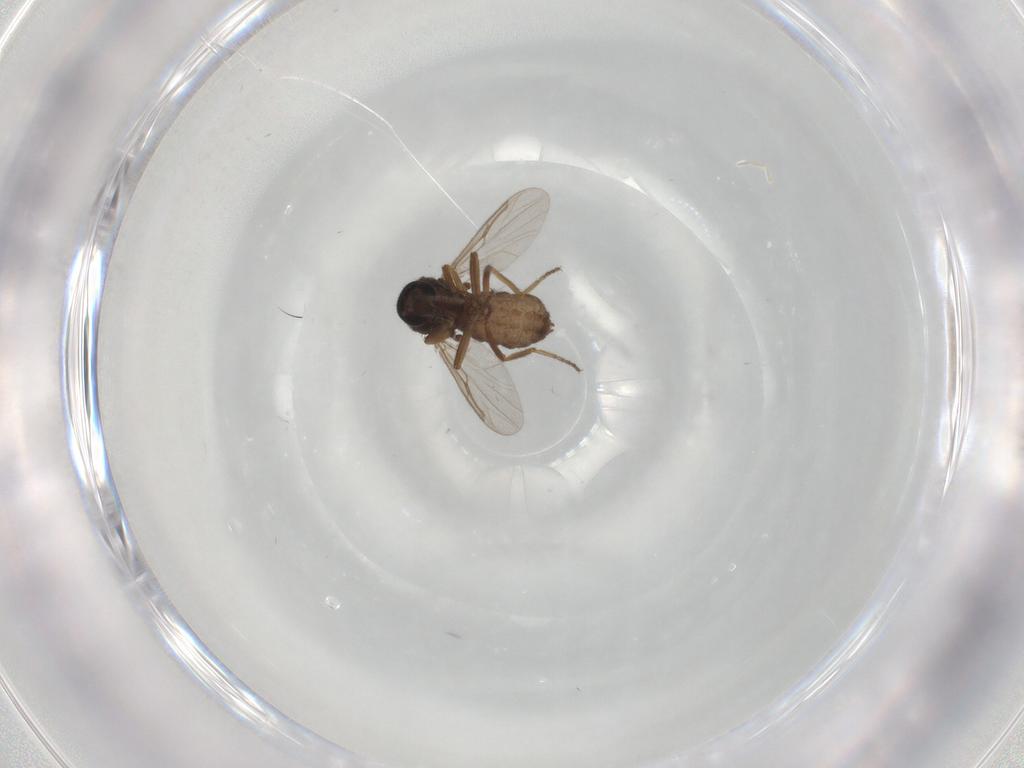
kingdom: Animalia
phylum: Arthropoda
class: Insecta
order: Diptera
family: Ceratopogonidae
